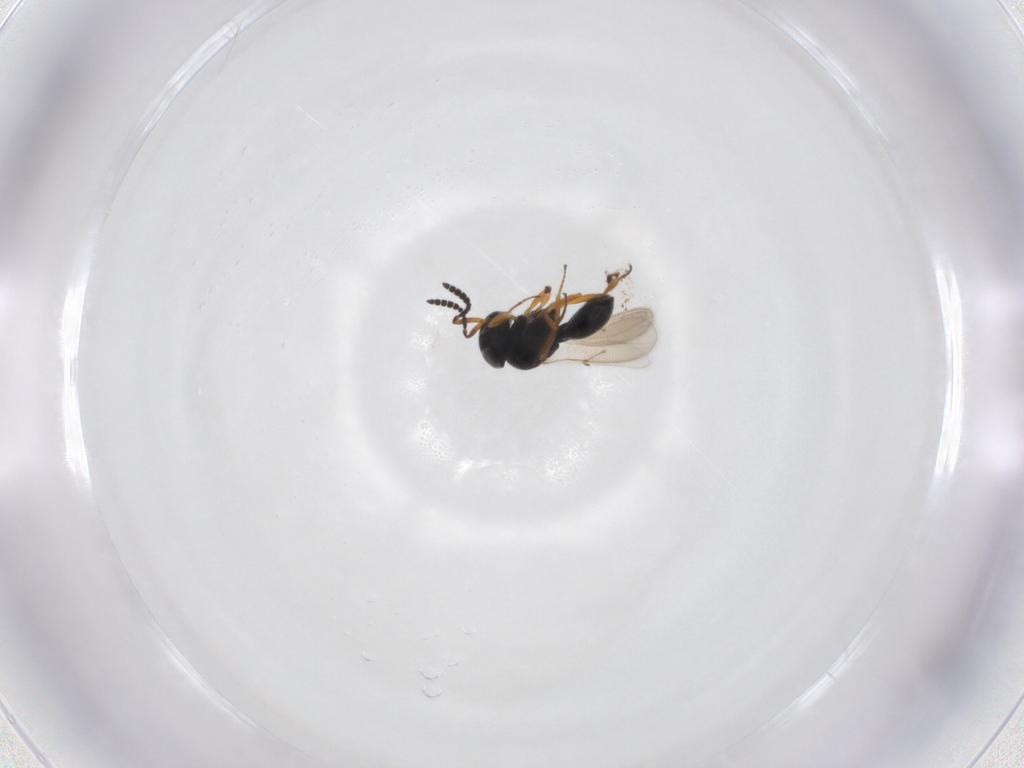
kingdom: Animalia
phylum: Arthropoda
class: Insecta
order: Hymenoptera
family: Scelionidae
